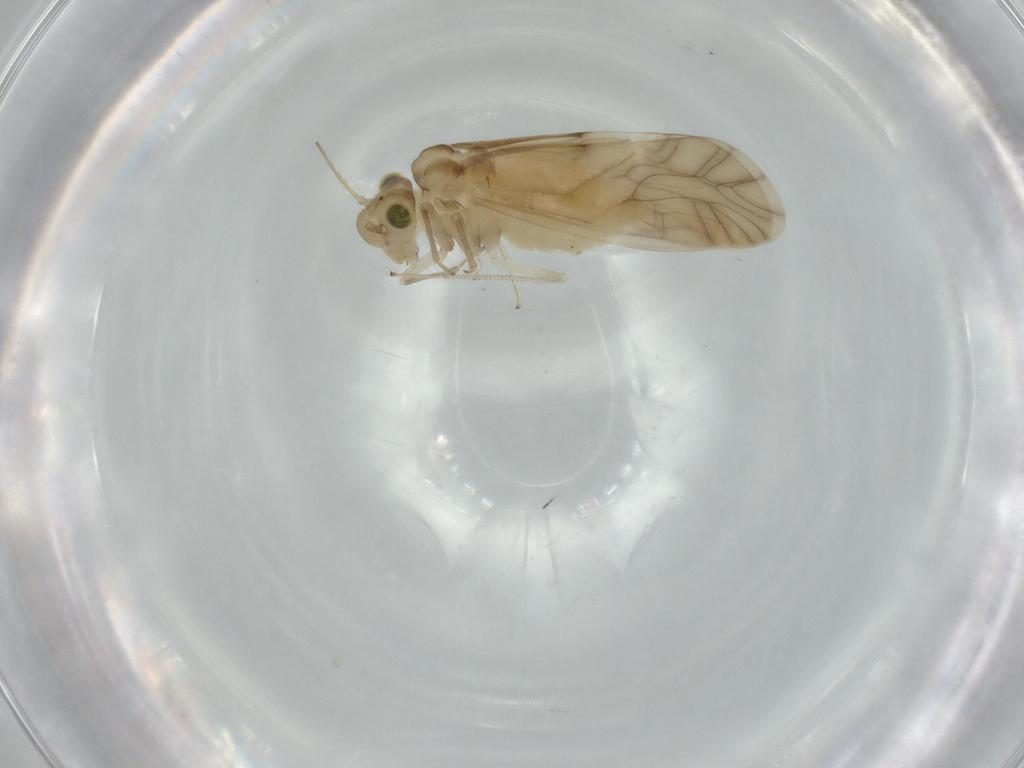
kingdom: Animalia
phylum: Arthropoda
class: Insecta
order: Psocodea
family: Caeciliusidae
